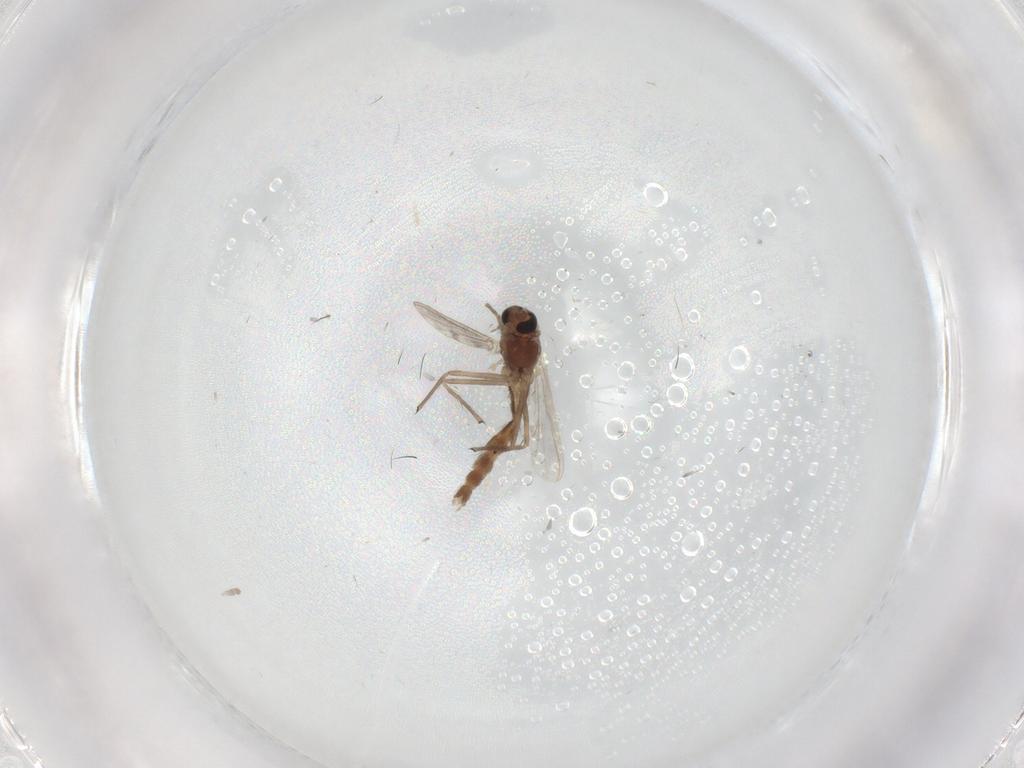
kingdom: Animalia
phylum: Arthropoda
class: Insecta
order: Diptera
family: Chironomidae
